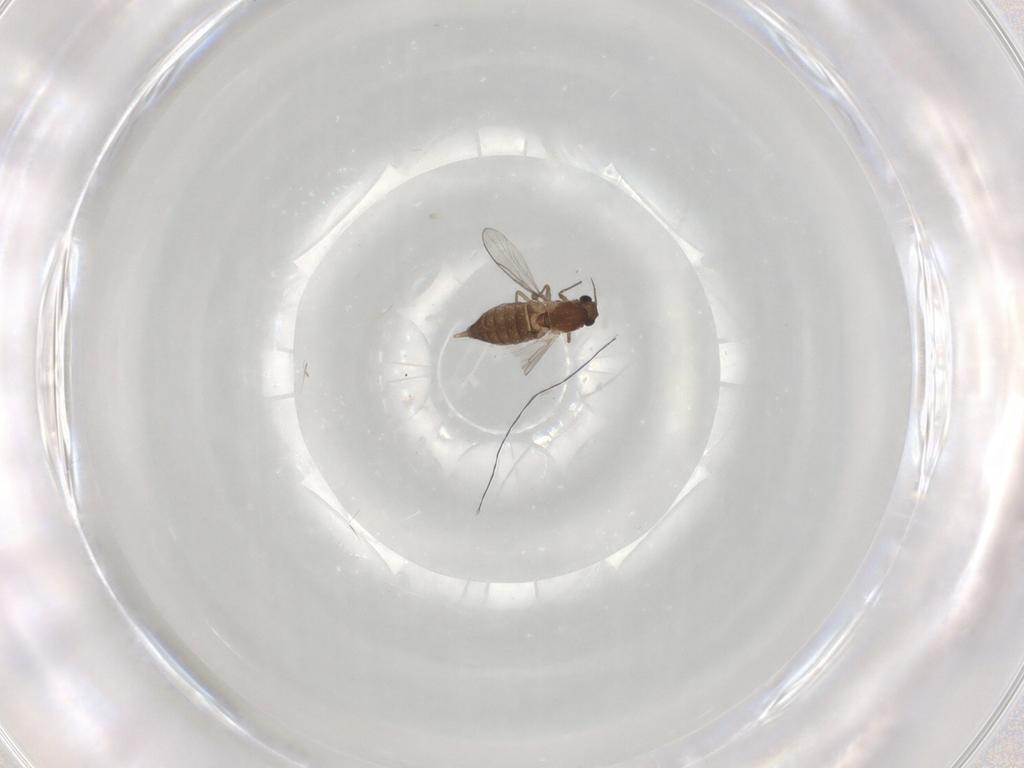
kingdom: Animalia
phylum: Arthropoda
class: Insecta
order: Diptera
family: Chironomidae
